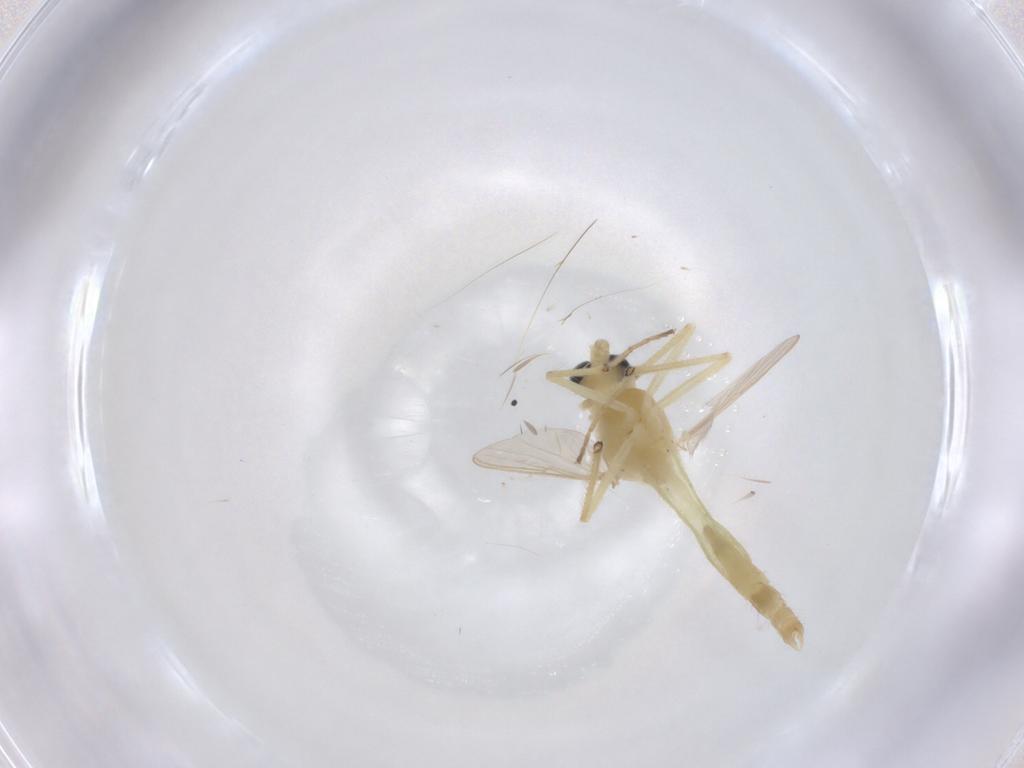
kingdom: Animalia
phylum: Arthropoda
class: Insecta
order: Diptera
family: Chironomidae
